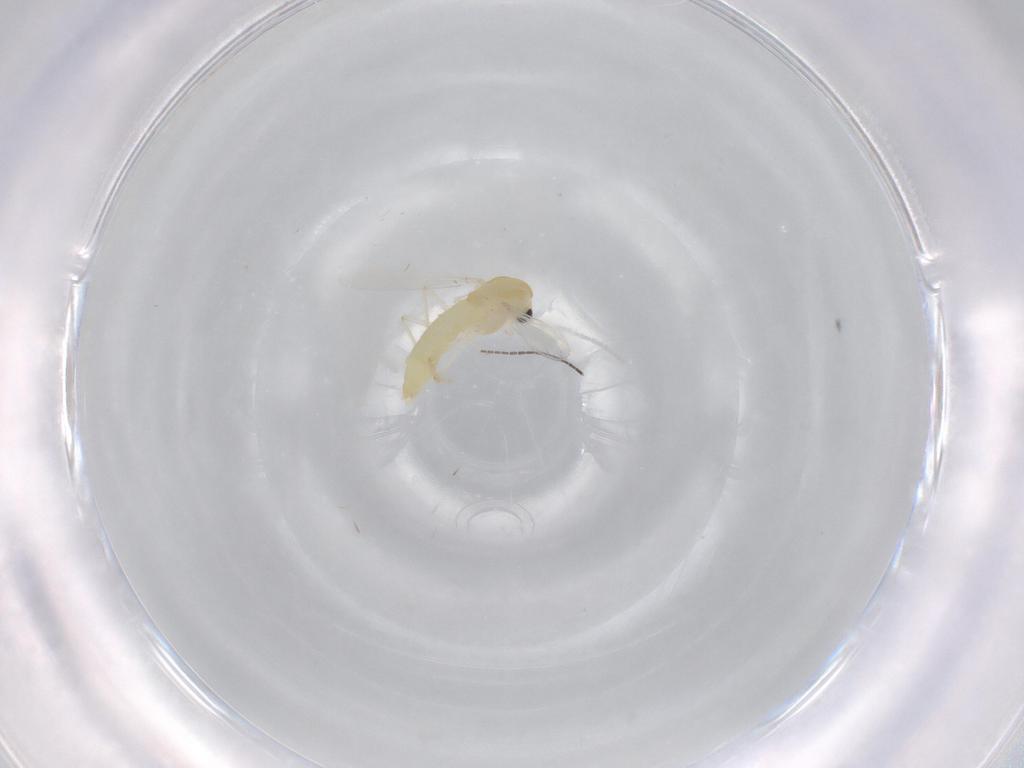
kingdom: Animalia
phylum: Arthropoda
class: Insecta
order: Diptera
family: Chironomidae
